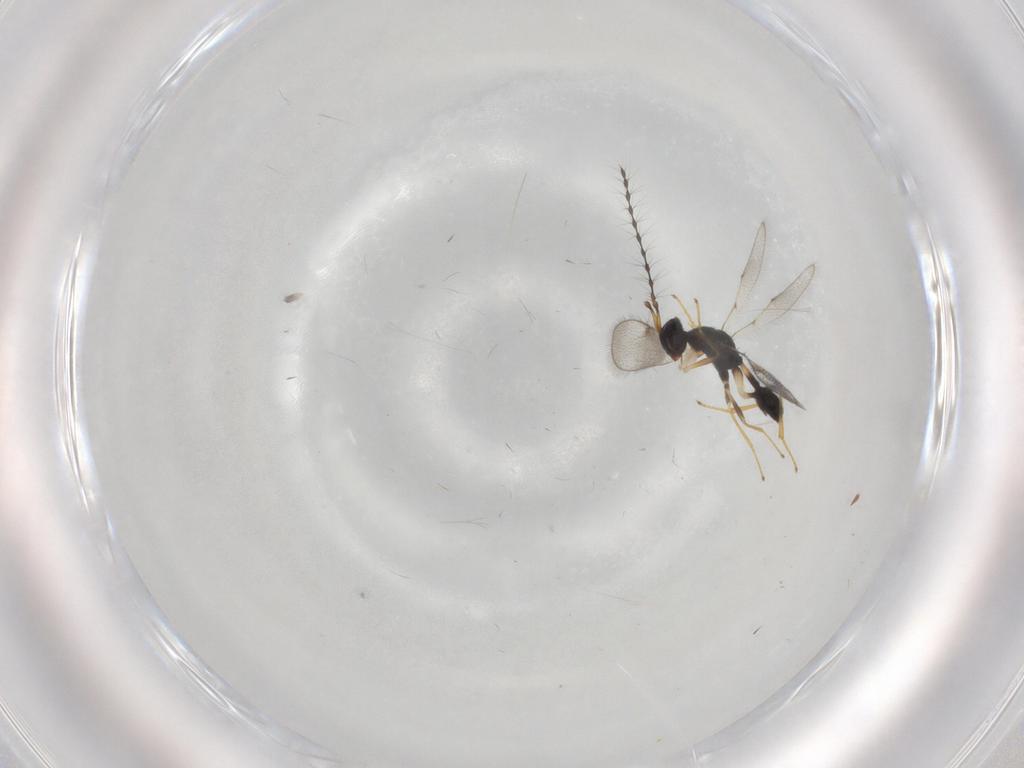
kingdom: Animalia
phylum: Arthropoda
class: Insecta
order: Hymenoptera
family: Diparidae
